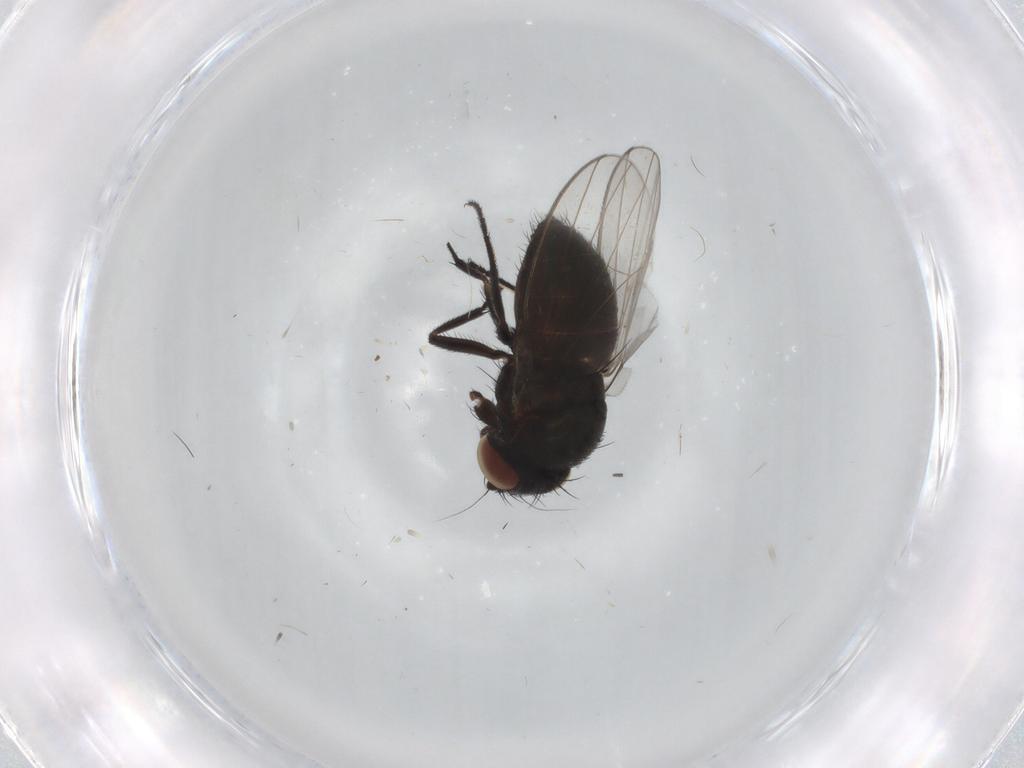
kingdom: Animalia
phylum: Arthropoda
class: Insecta
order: Diptera
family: Milichiidae
